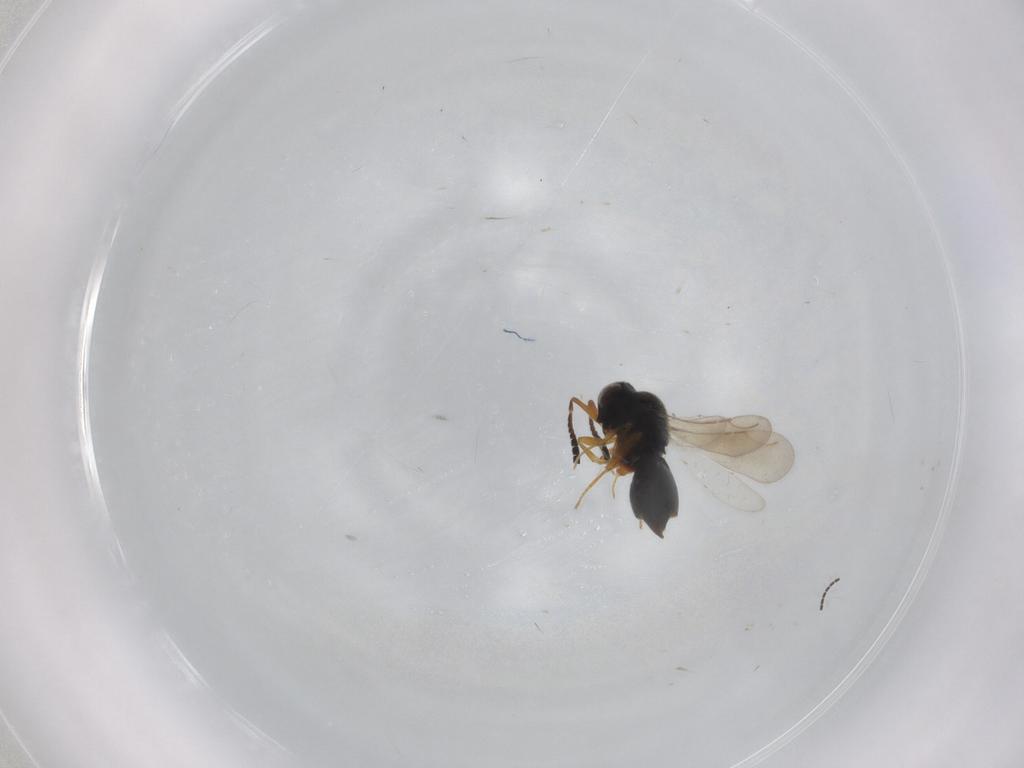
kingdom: Animalia
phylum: Arthropoda
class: Insecta
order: Hymenoptera
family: Ceraphronidae
